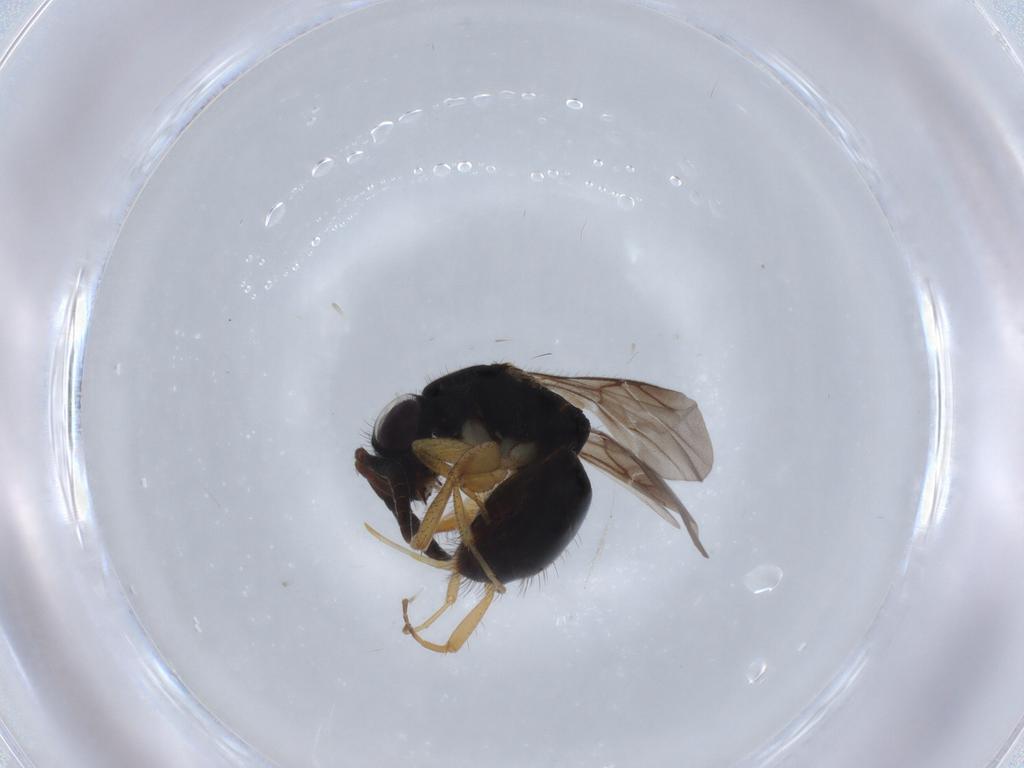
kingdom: Animalia
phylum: Arthropoda
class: Insecta
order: Hymenoptera
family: Chrysididae
